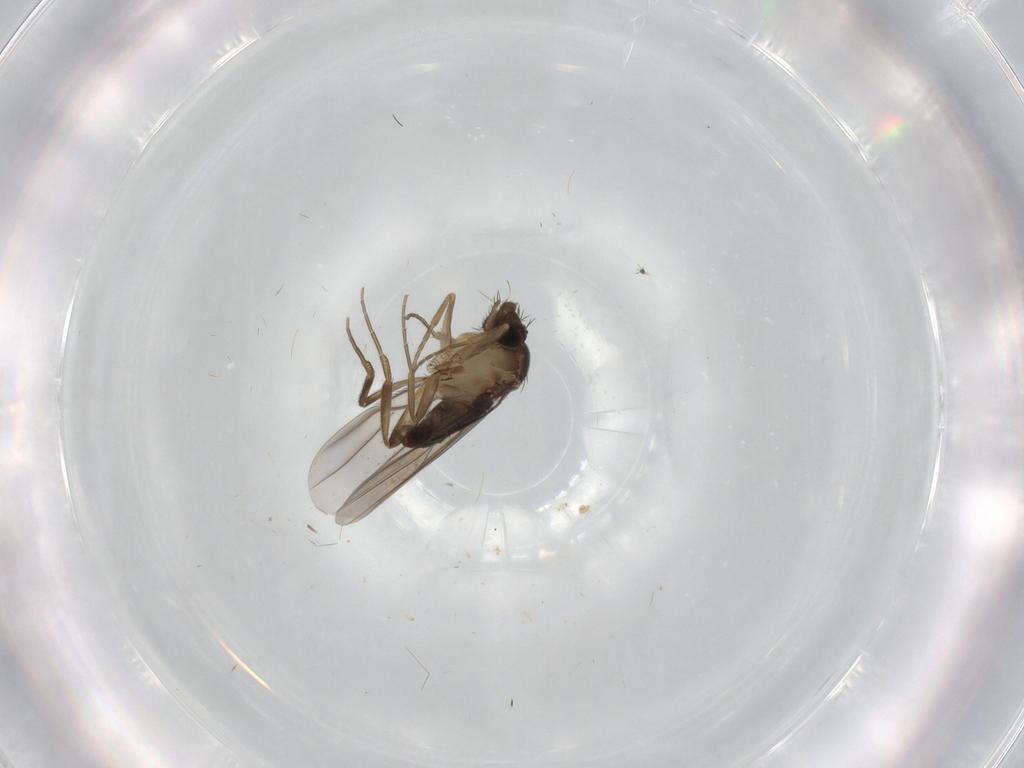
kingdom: Animalia
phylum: Arthropoda
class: Insecta
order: Diptera
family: Phoridae
